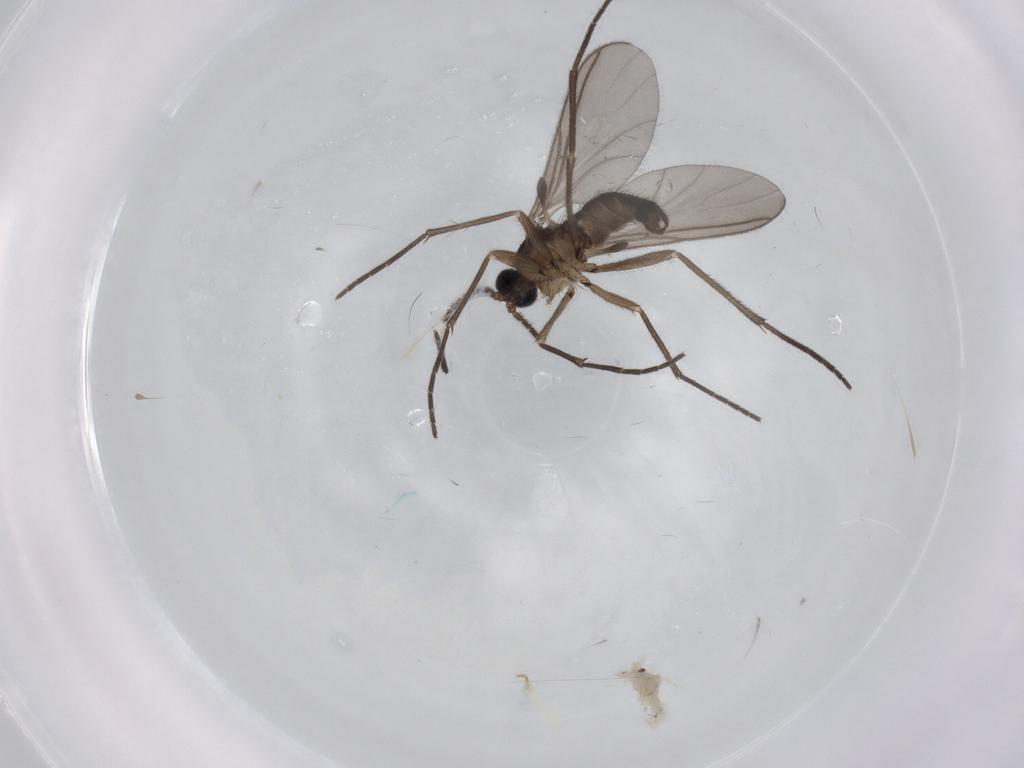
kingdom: Animalia
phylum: Arthropoda
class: Insecta
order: Diptera
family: Sciaridae
